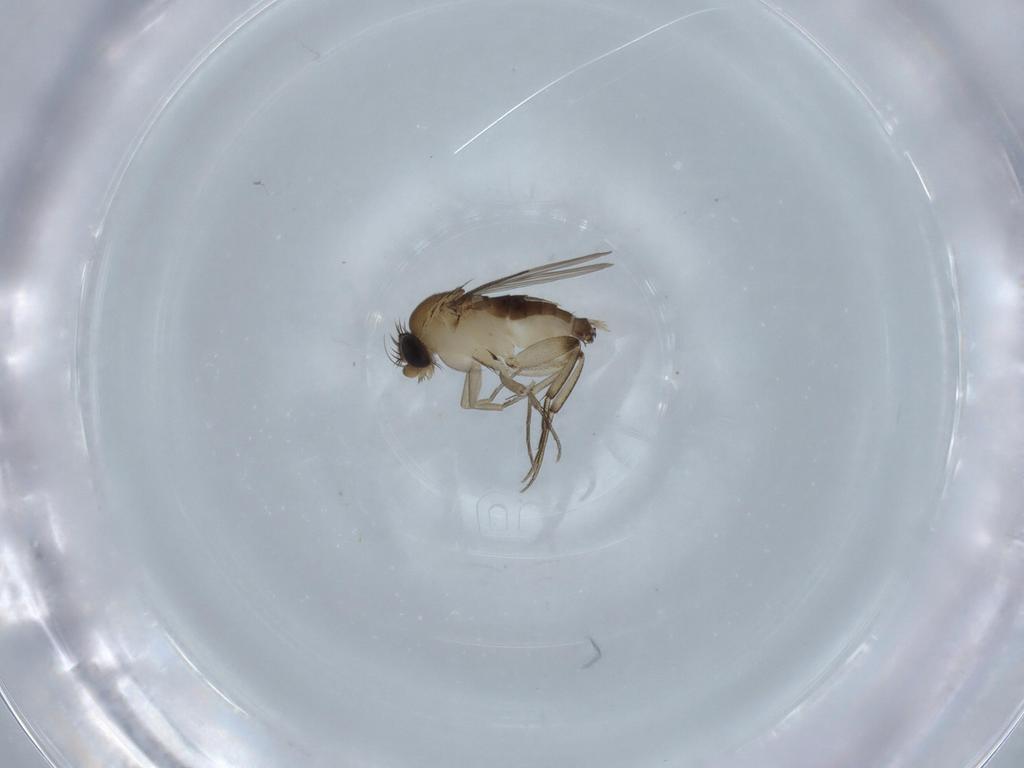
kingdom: Animalia
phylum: Arthropoda
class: Insecta
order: Diptera
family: Phoridae
